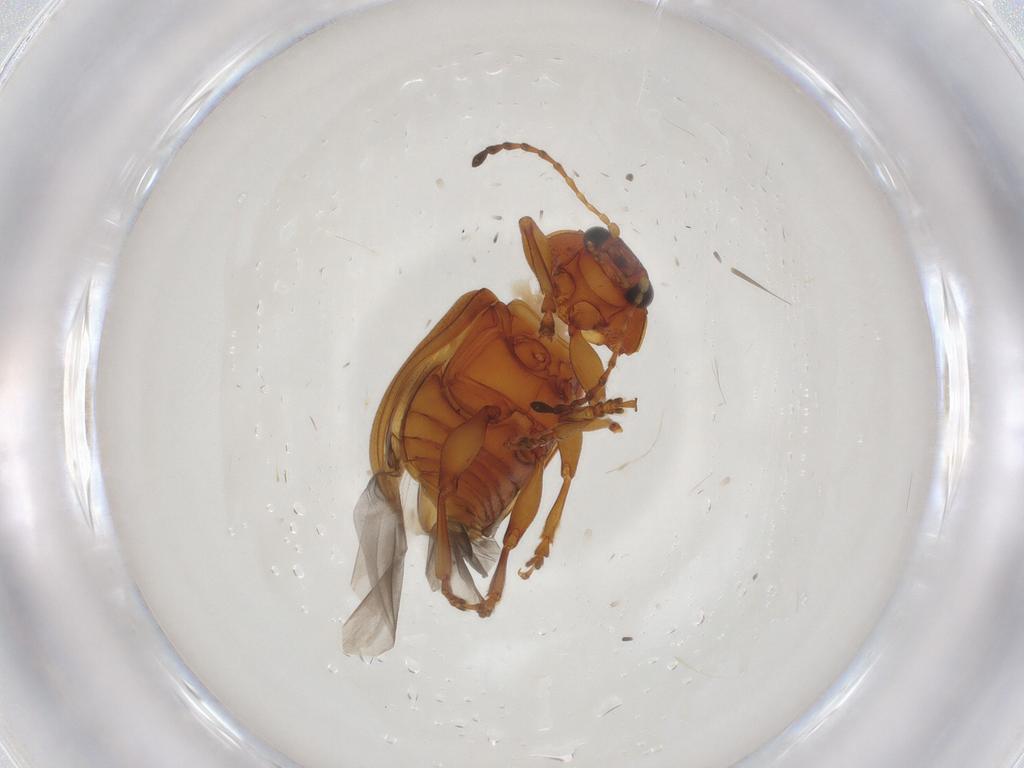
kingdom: Animalia
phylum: Arthropoda
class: Insecta
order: Coleoptera
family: Chrysomelidae
